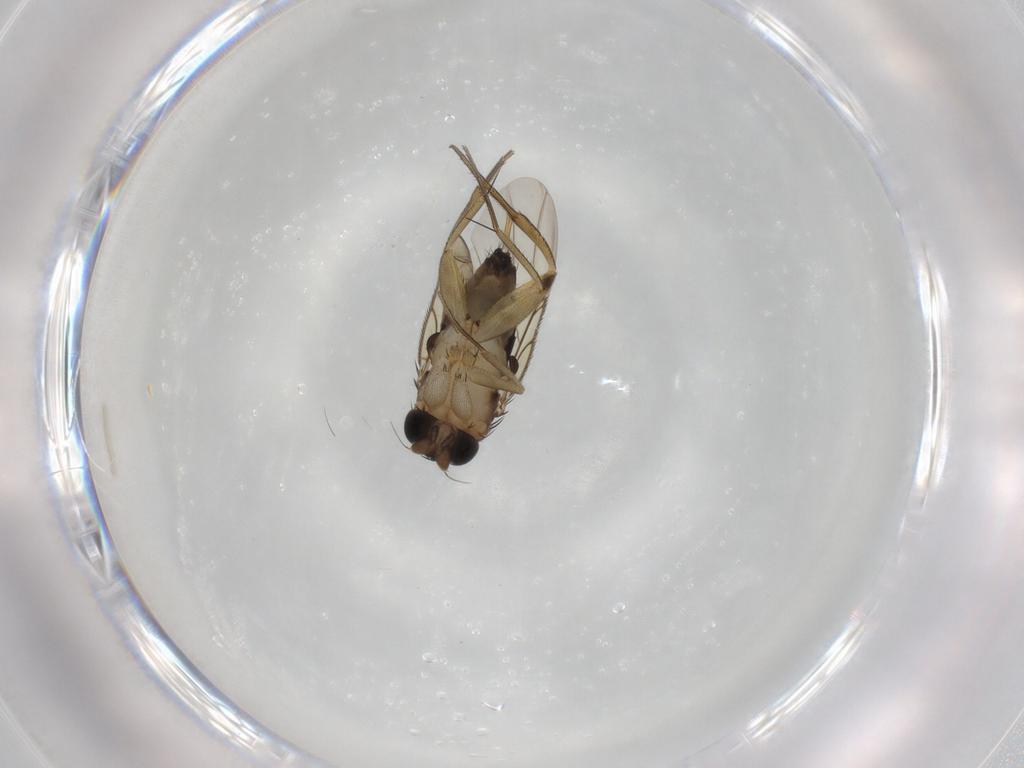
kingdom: Animalia
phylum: Arthropoda
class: Insecta
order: Diptera
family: Phoridae
